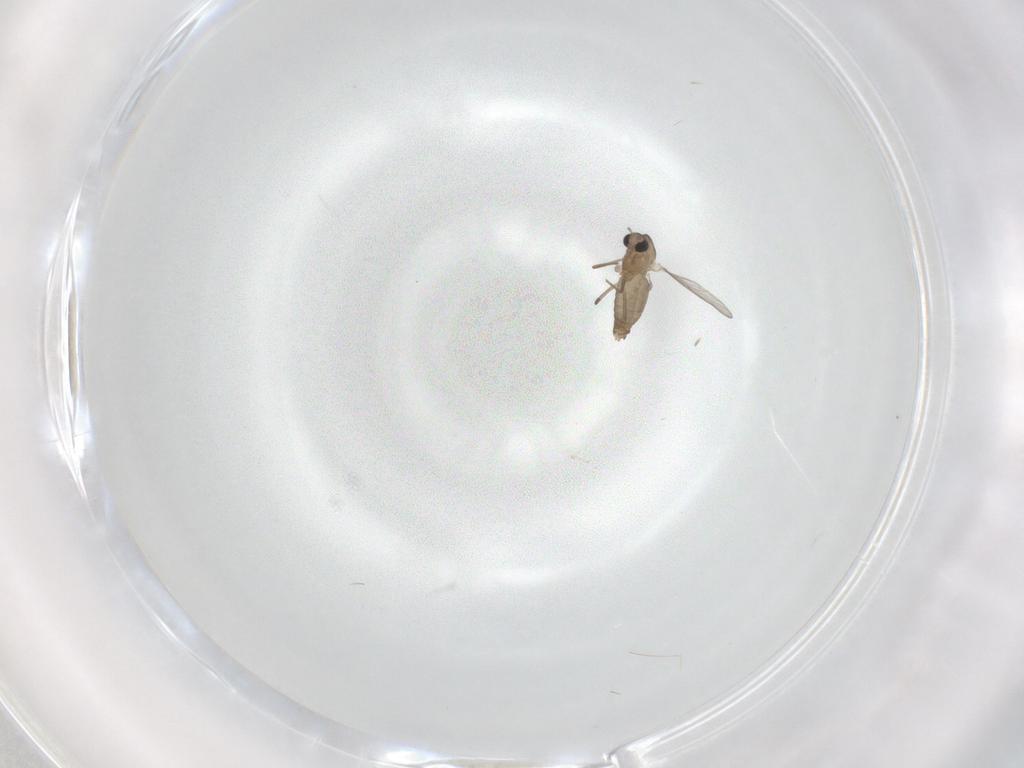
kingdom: Animalia
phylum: Arthropoda
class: Insecta
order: Diptera
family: Chironomidae
